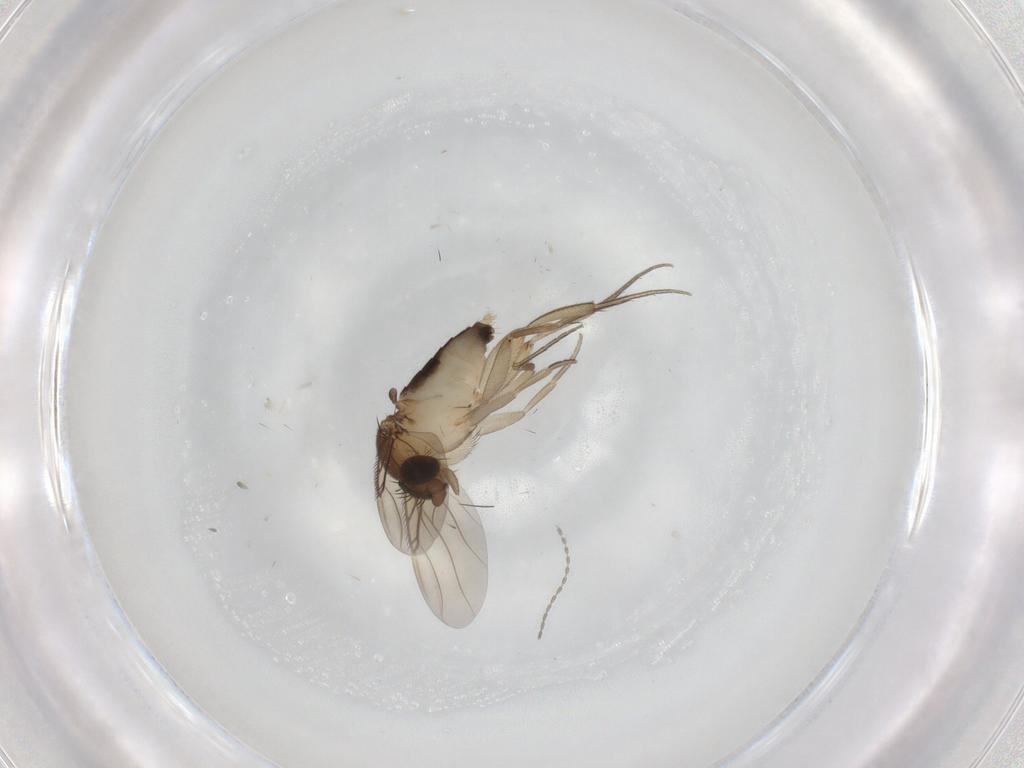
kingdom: Animalia
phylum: Arthropoda
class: Insecta
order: Diptera
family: Phoridae
